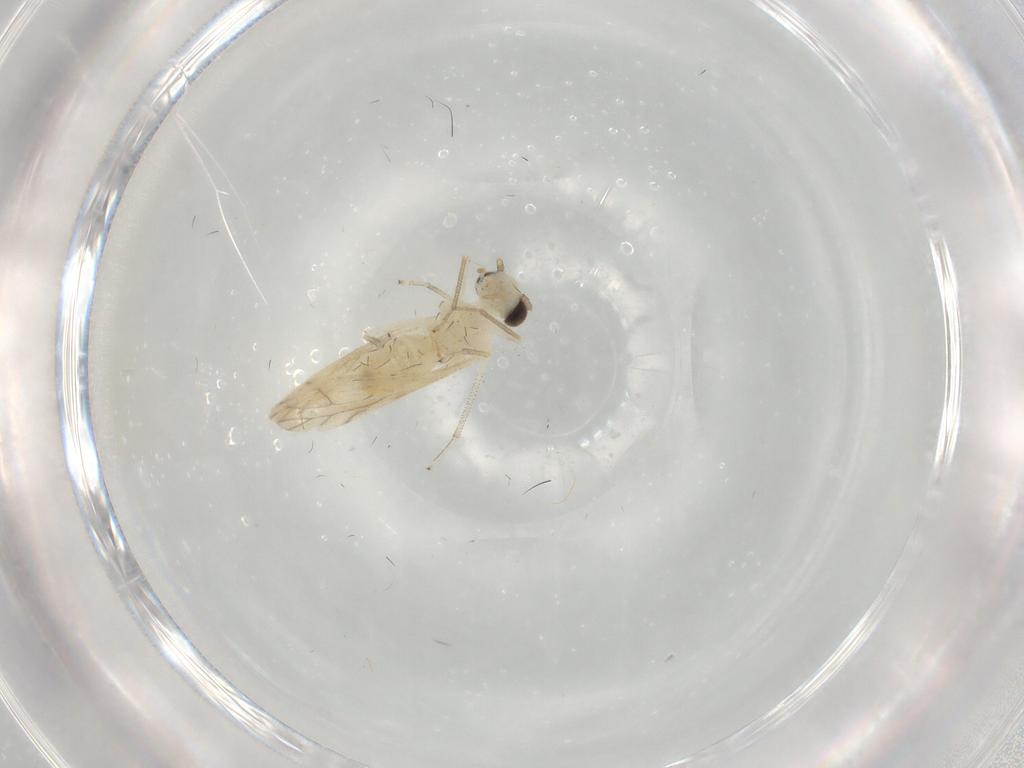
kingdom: Animalia
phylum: Arthropoda
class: Insecta
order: Psocodea
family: Caeciliusidae
